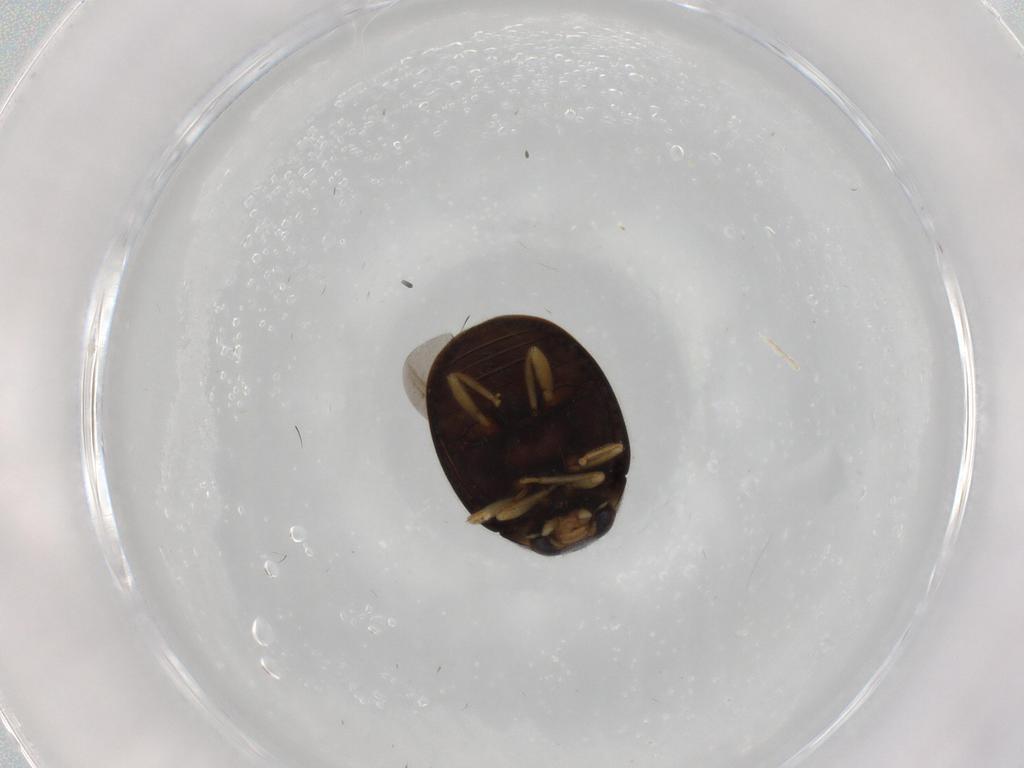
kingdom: Animalia
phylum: Arthropoda
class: Insecta
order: Coleoptera
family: Coccinellidae
